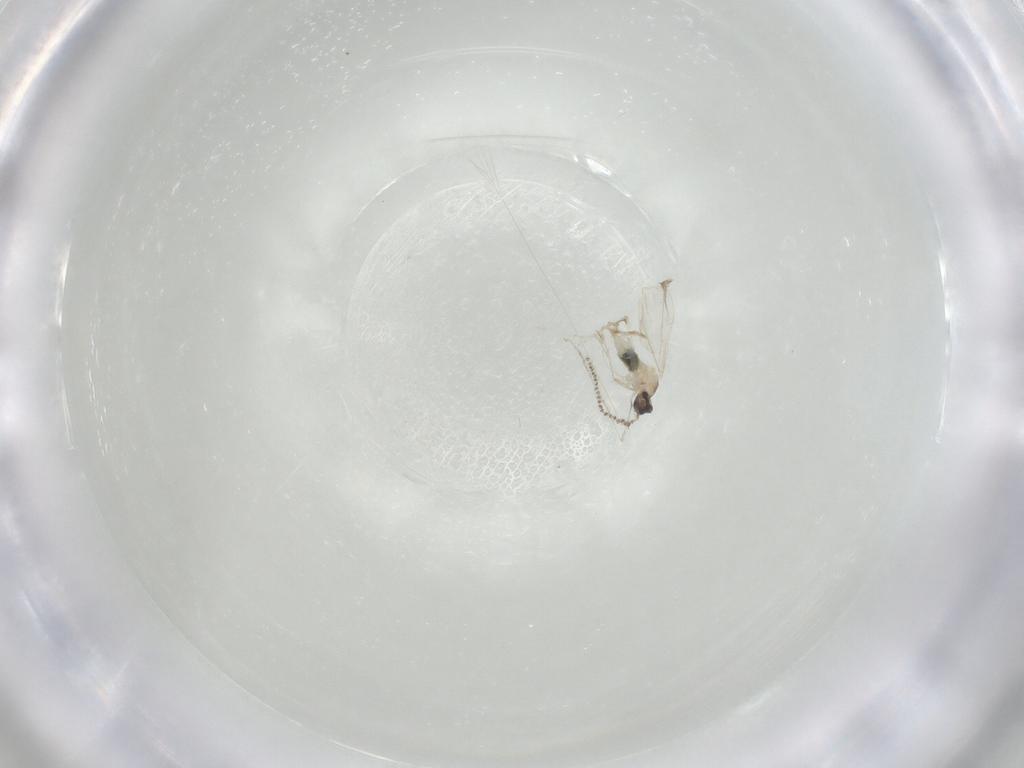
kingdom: Animalia
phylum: Arthropoda
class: Insecta
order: Diptera
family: Cecidomyiidae
